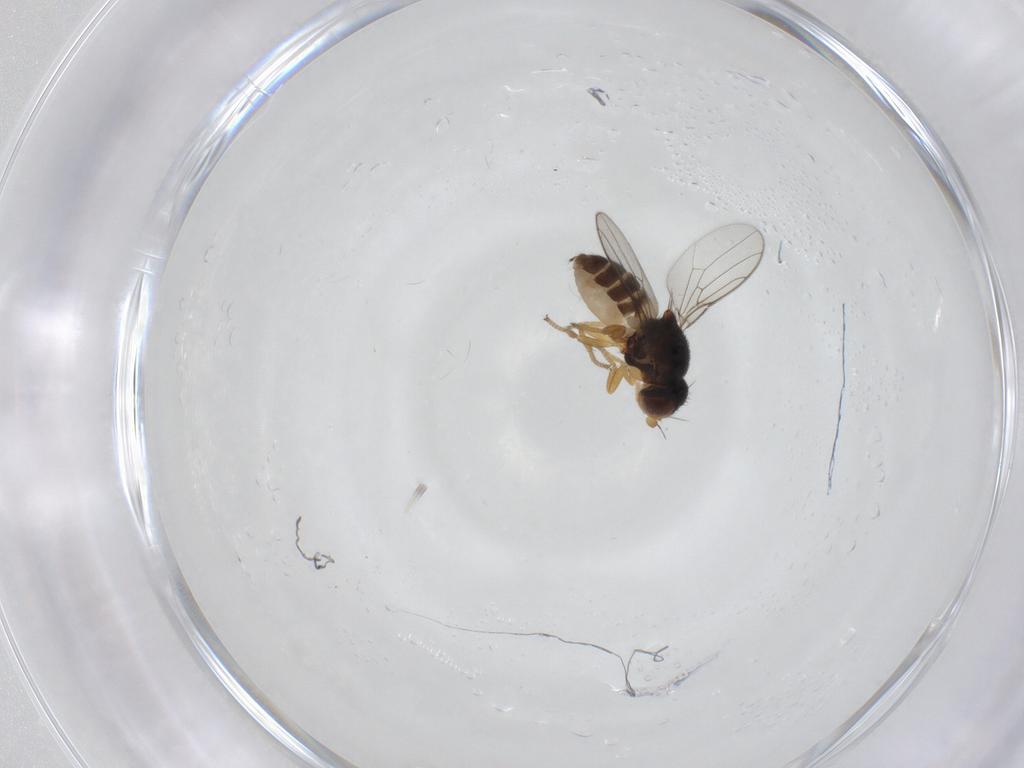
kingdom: Animalia
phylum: Arthropoda
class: Insecta
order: Diptera
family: Chloropidae
